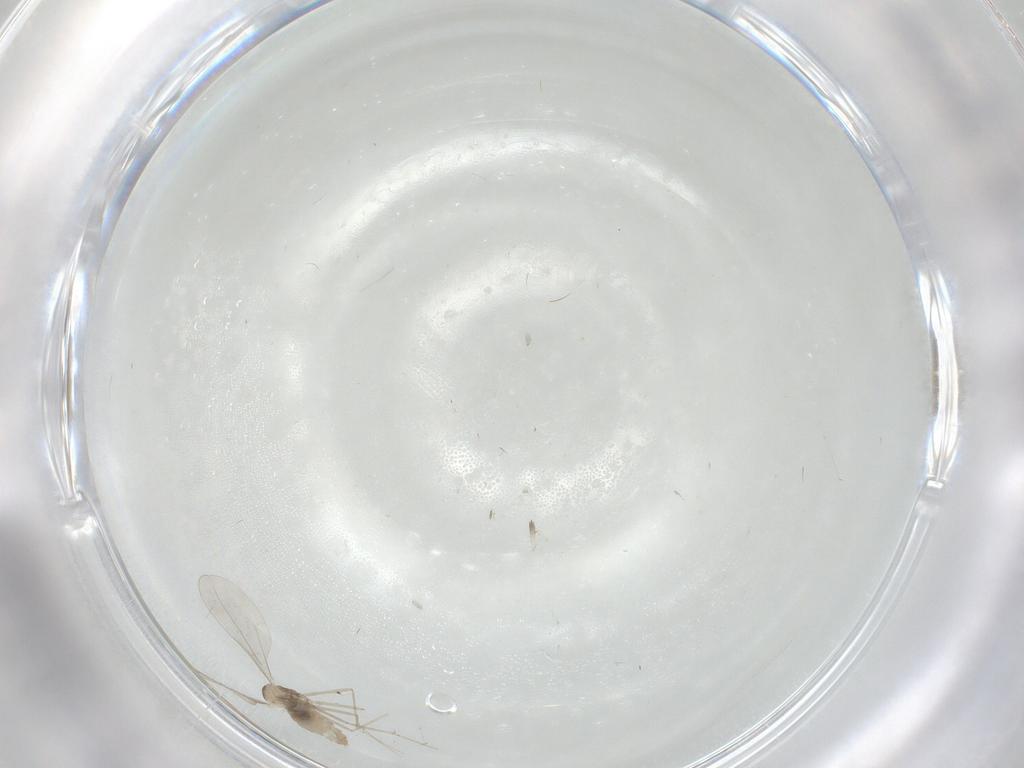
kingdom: Animalia
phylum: Arthropoda
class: Insecta
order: Diptera
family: Cecidomyiidae
